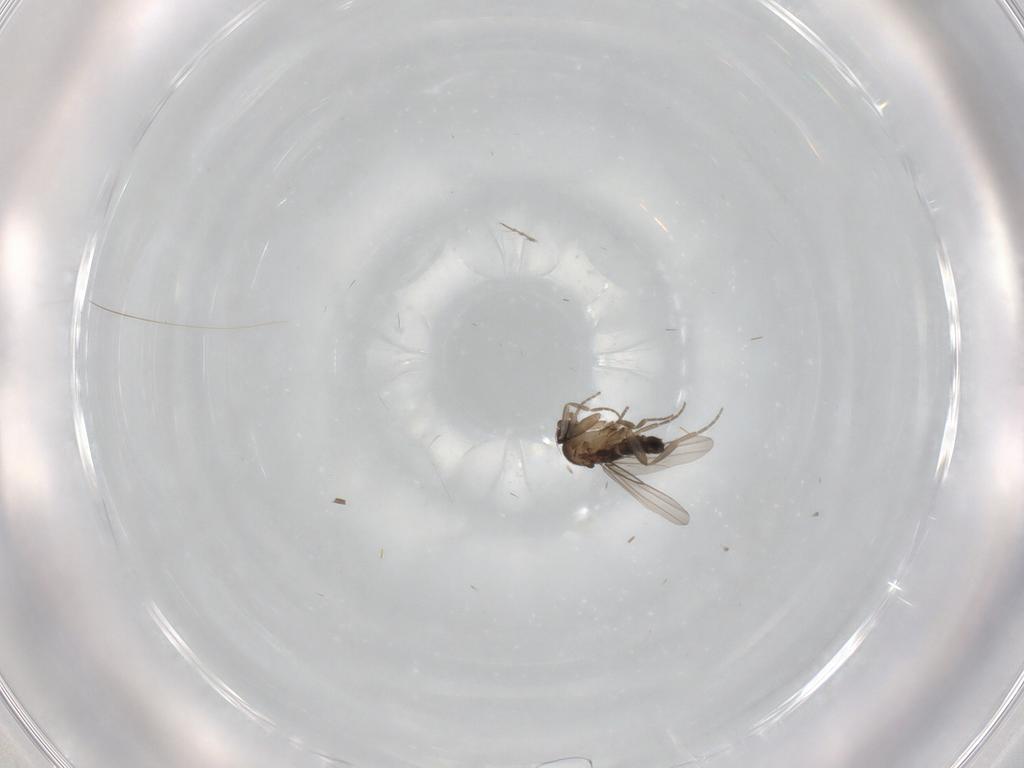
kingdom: Animalia
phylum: Arthropoda
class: Insecta
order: Diptera
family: Phoridae
